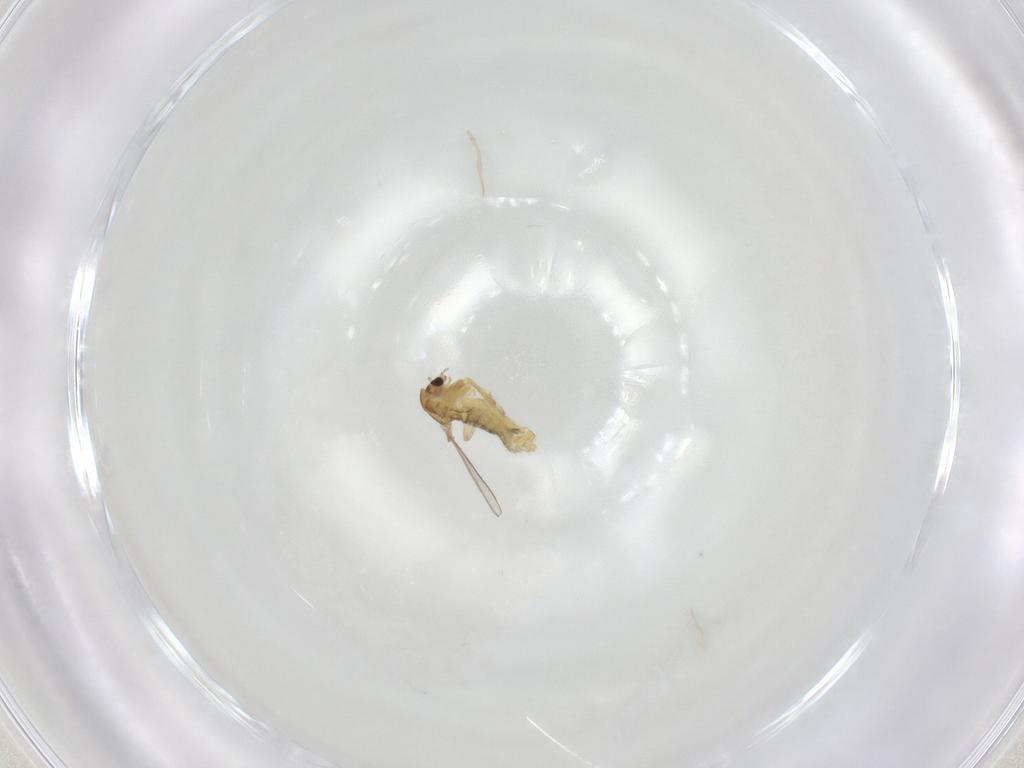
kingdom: Animalia
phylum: Arthropoda
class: Insecta
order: Diptera
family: Chironomidae
